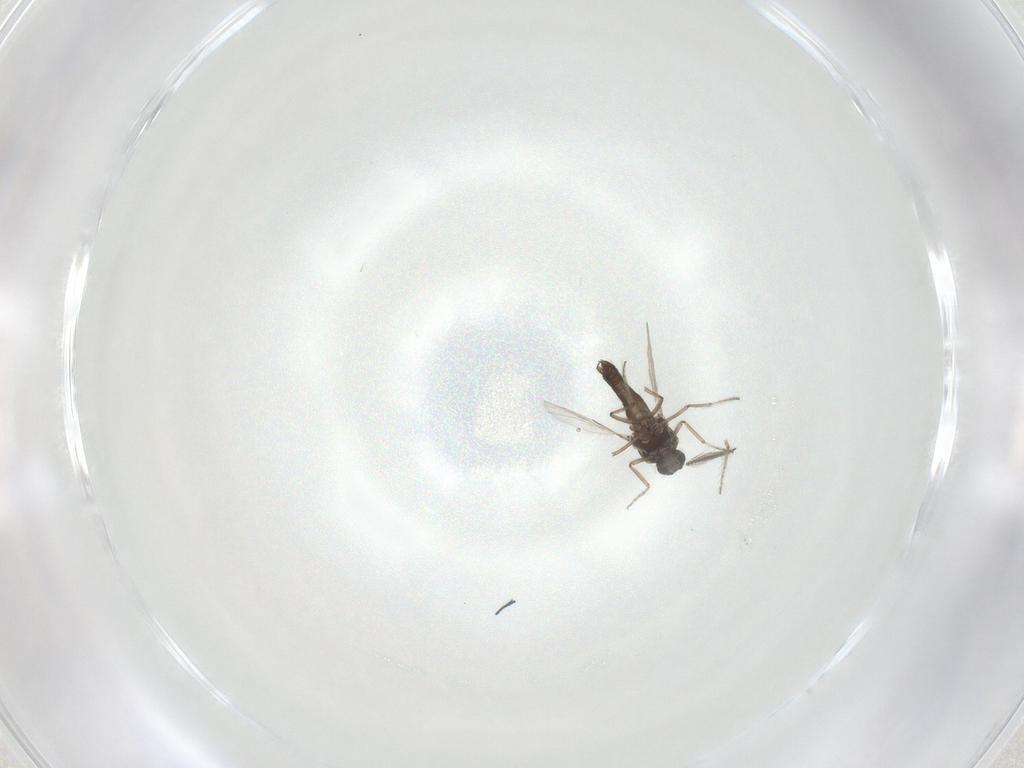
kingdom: Animalia
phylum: Arthropoda
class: Insecta
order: Diptera
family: Ceratopogonidae
